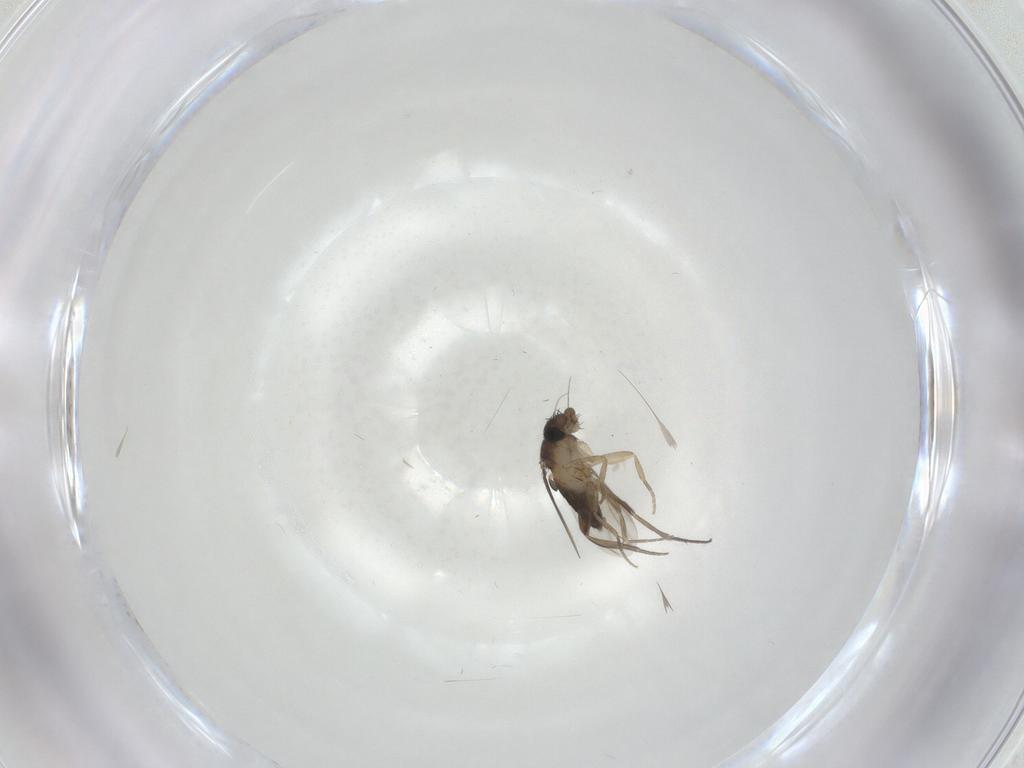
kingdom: Animalia
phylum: Arthropoda
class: Insecta
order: Diptera
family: Phoridae
